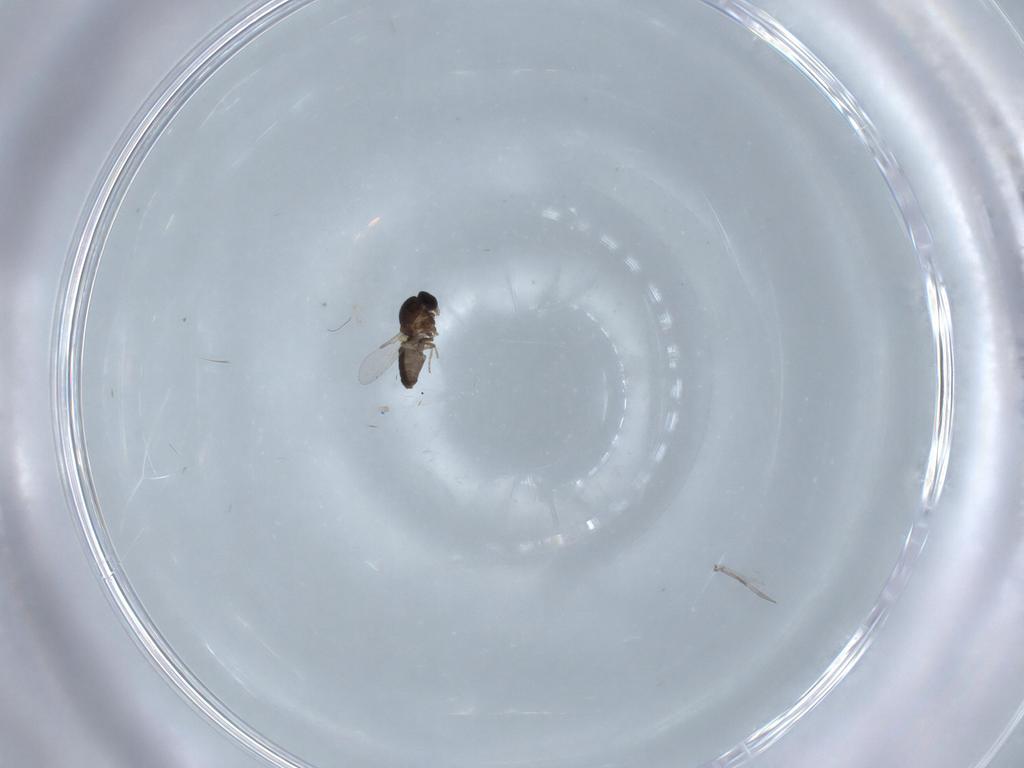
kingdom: Animalia
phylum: Arthropoda
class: Insecta
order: Diptera
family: Ceratopogonidae
